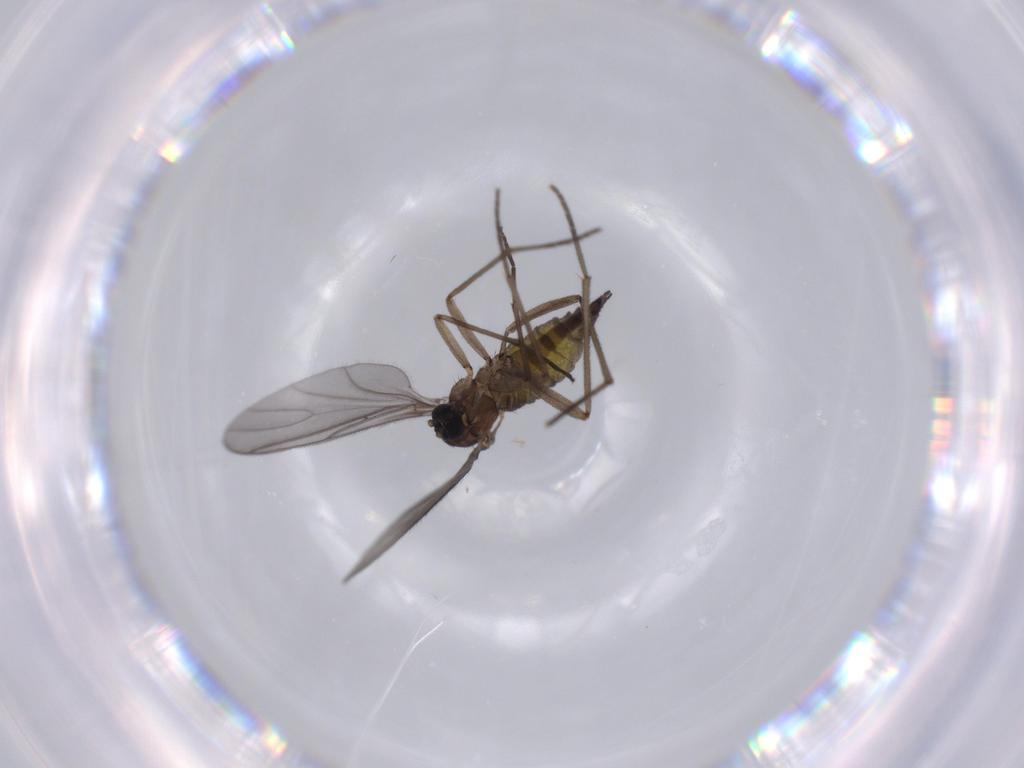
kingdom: Animalia
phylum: Arthropoda
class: Insecta
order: Diptera
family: Sciaridae
